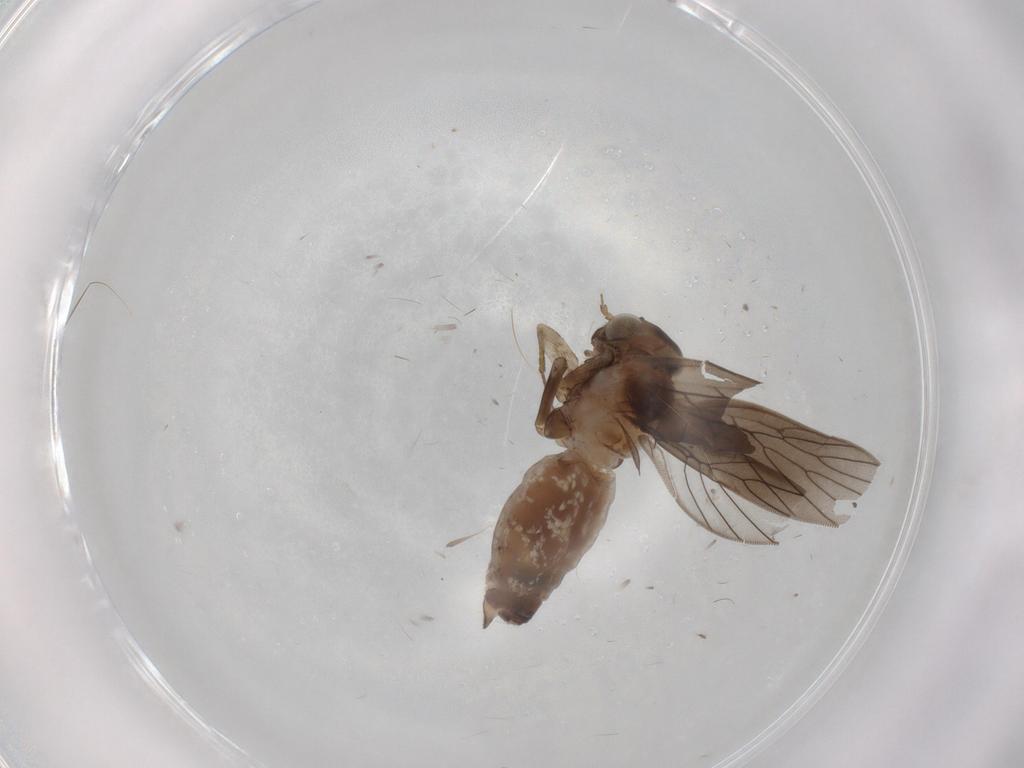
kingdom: Animalia
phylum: Arthropoda
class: Insecta
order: Psocodea
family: Lepidopsocidae
